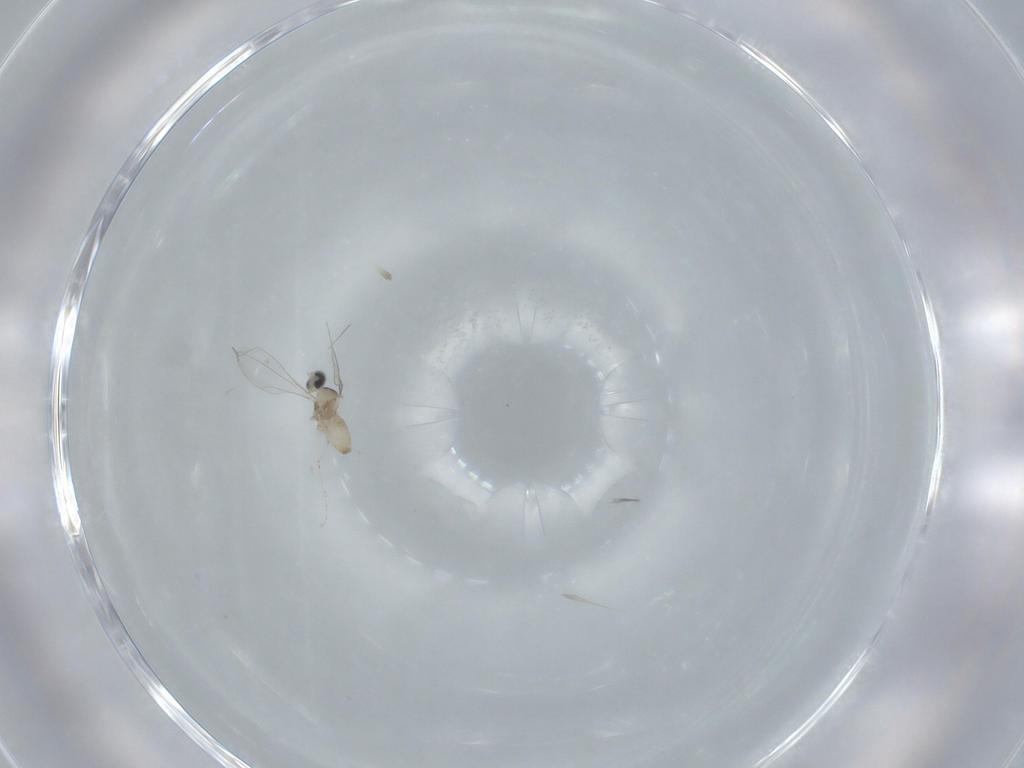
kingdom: Animalia
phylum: Arthropoda
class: Insecta
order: Diptera
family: Cecidomyiidae
